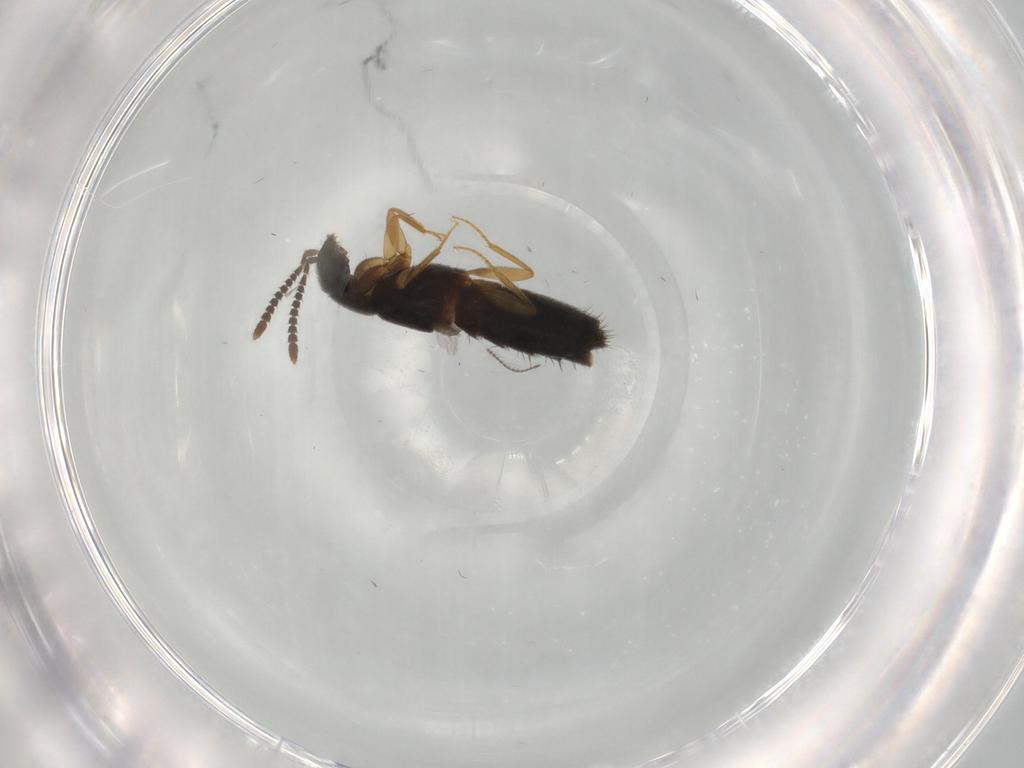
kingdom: Animalia
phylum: Arthropoda
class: Insecta
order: Coleoptera
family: Staphylinidae
